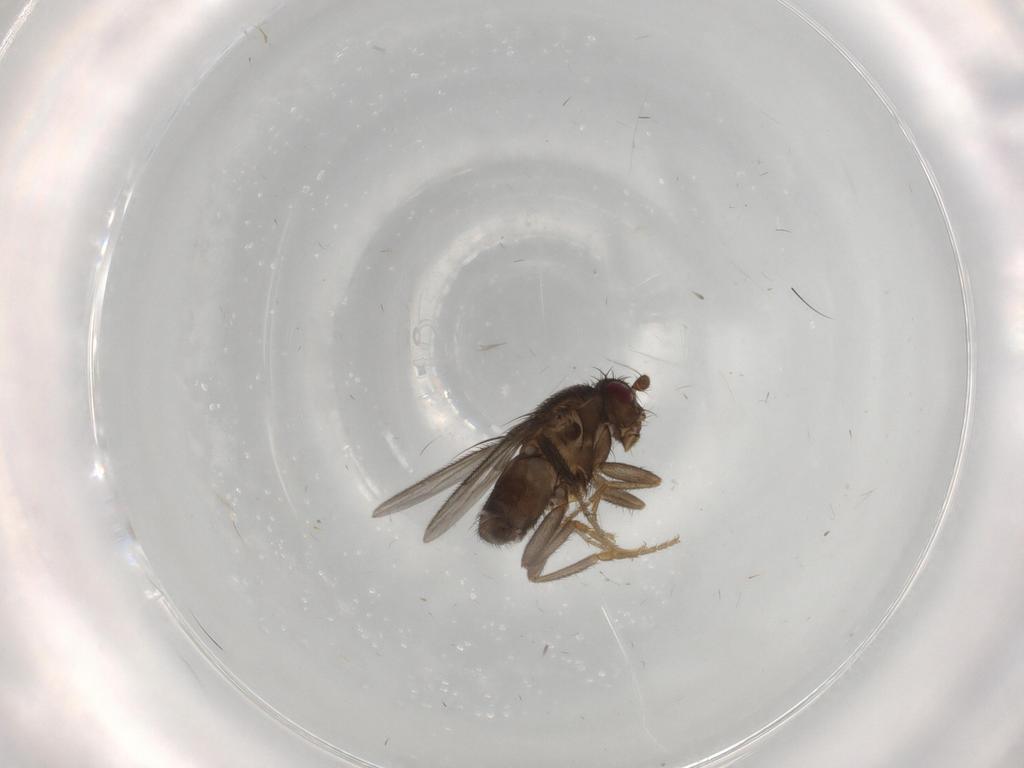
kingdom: Animalia
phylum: Arthropoda
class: Insecta
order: Diptera
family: Sphaeroceridae
